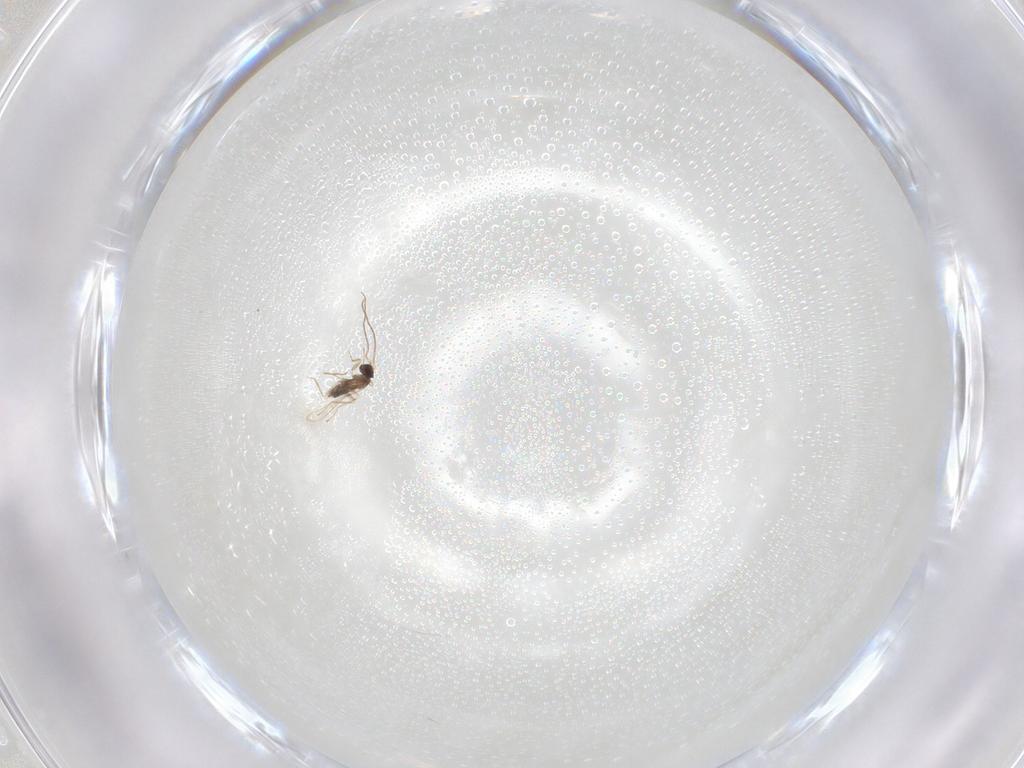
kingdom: Animalia
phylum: Arthropoda
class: Insecta
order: Hymenoptera
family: Mymaridae
